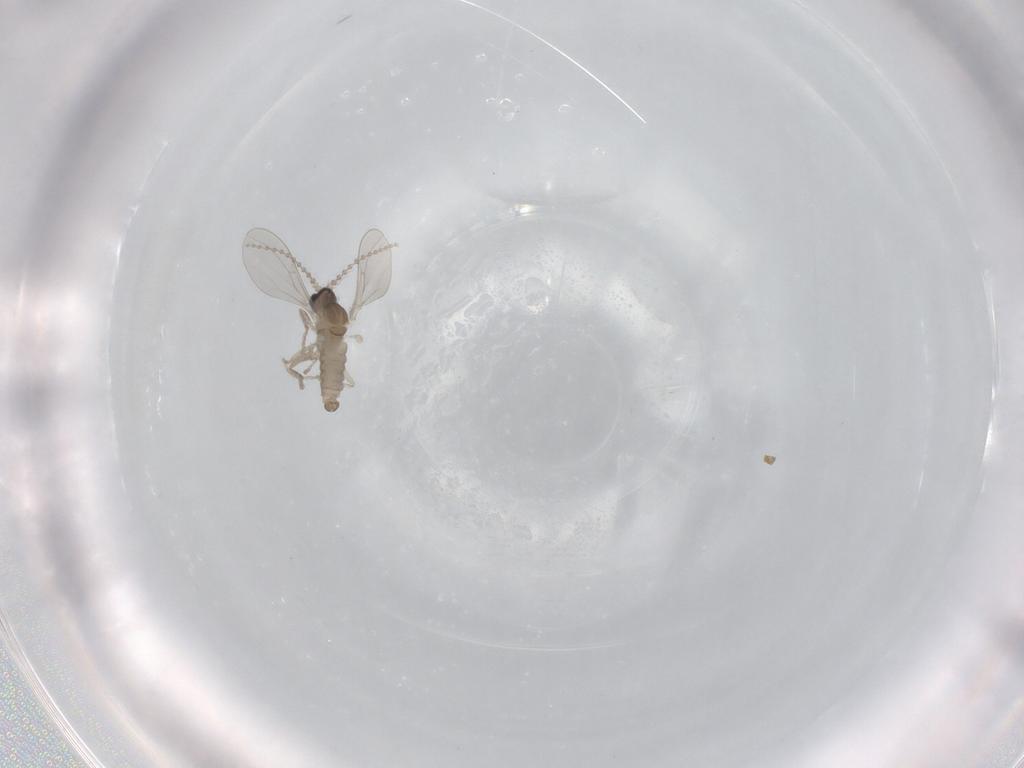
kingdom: Animalia
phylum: Arthropoda
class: Insecta
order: Diptera
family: Cecidomyiidae
